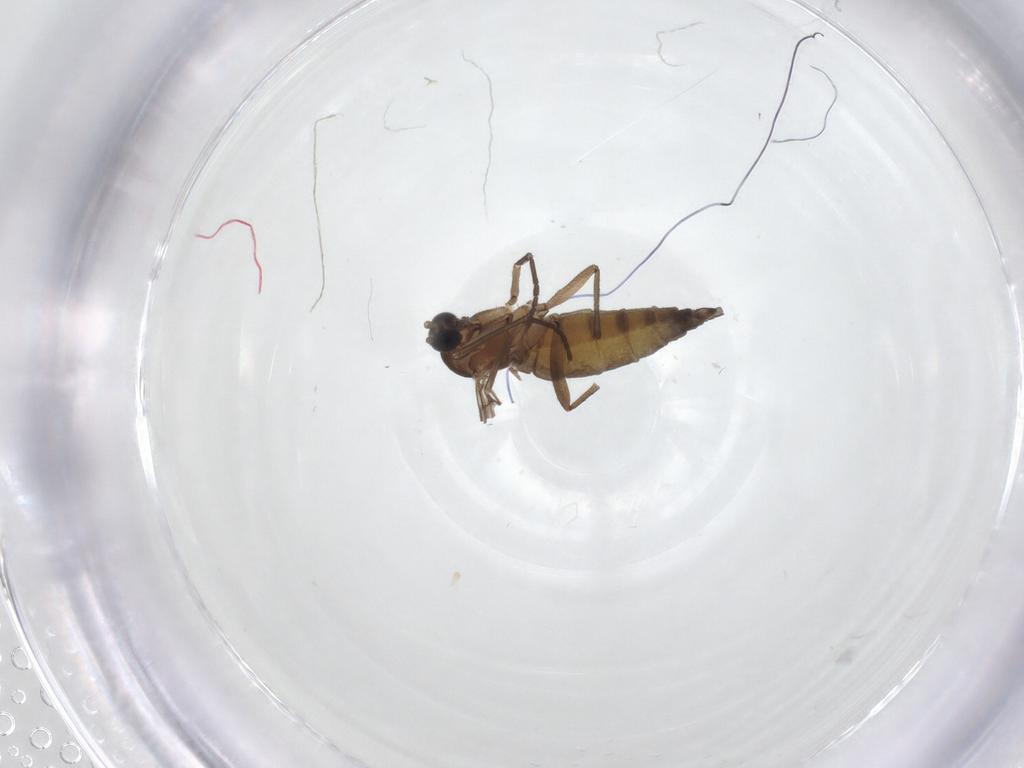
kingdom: Animalia
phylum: Arthropoda
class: Insecta
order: Diptera
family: Sciaridae
